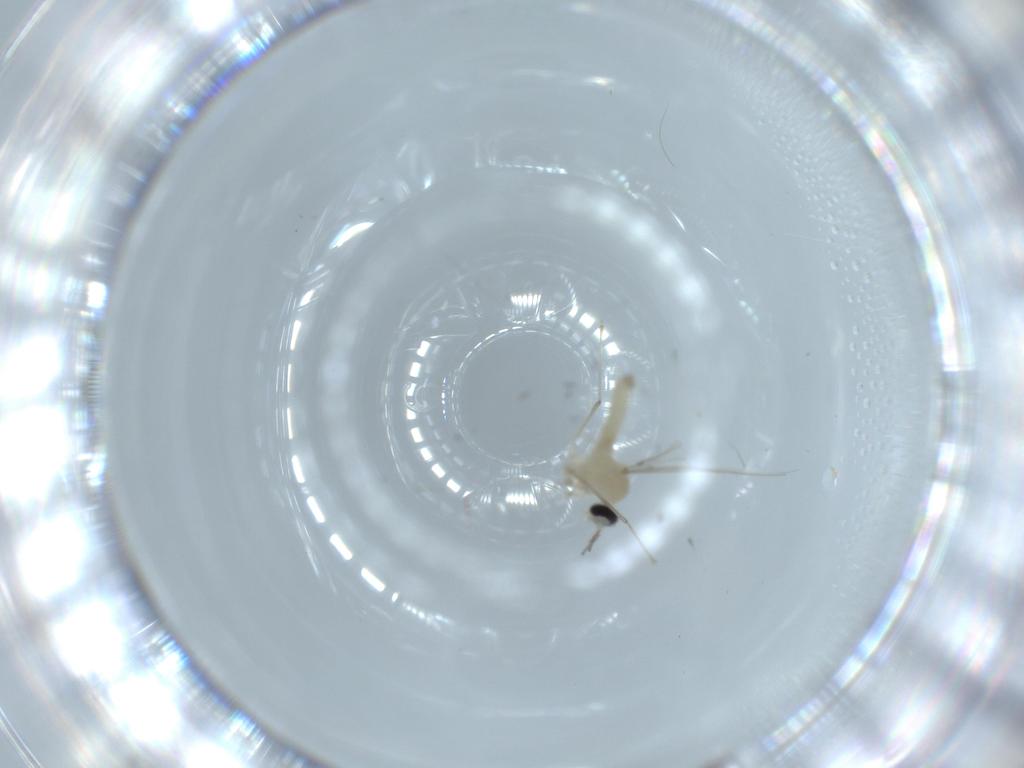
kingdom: Animalia
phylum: Arthropoda
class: Insecta
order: Diptera
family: Cecidomyiidae
